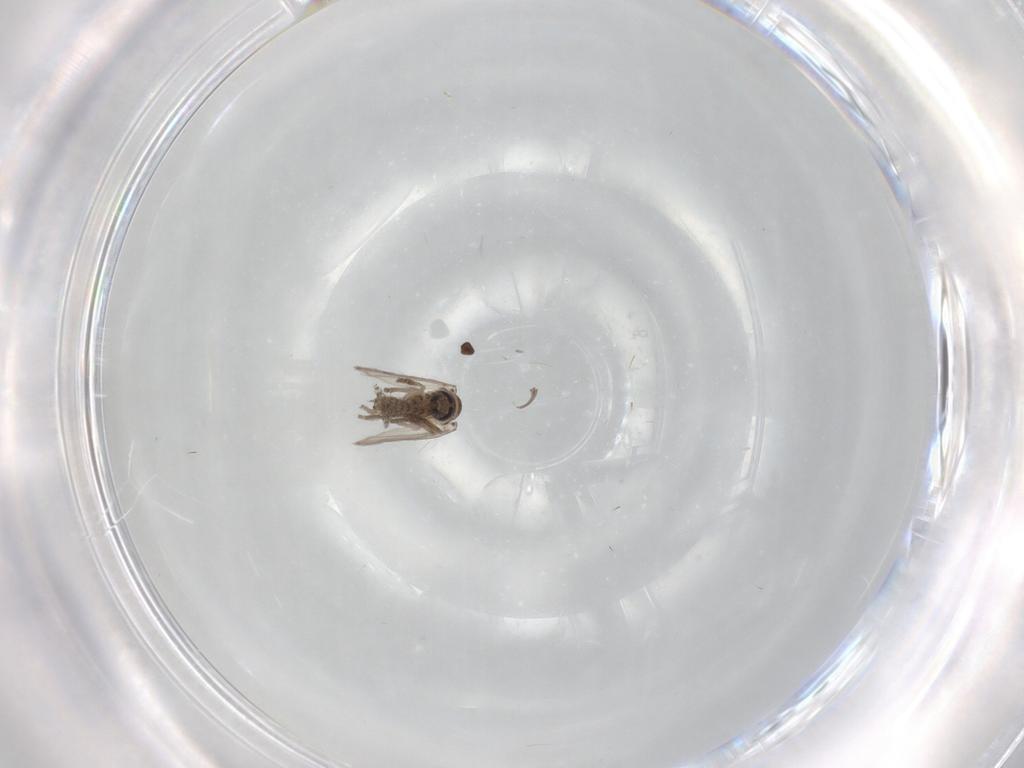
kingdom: Animalia
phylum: Arthropoda
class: Insecta
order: Diptera
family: Psychodidae
